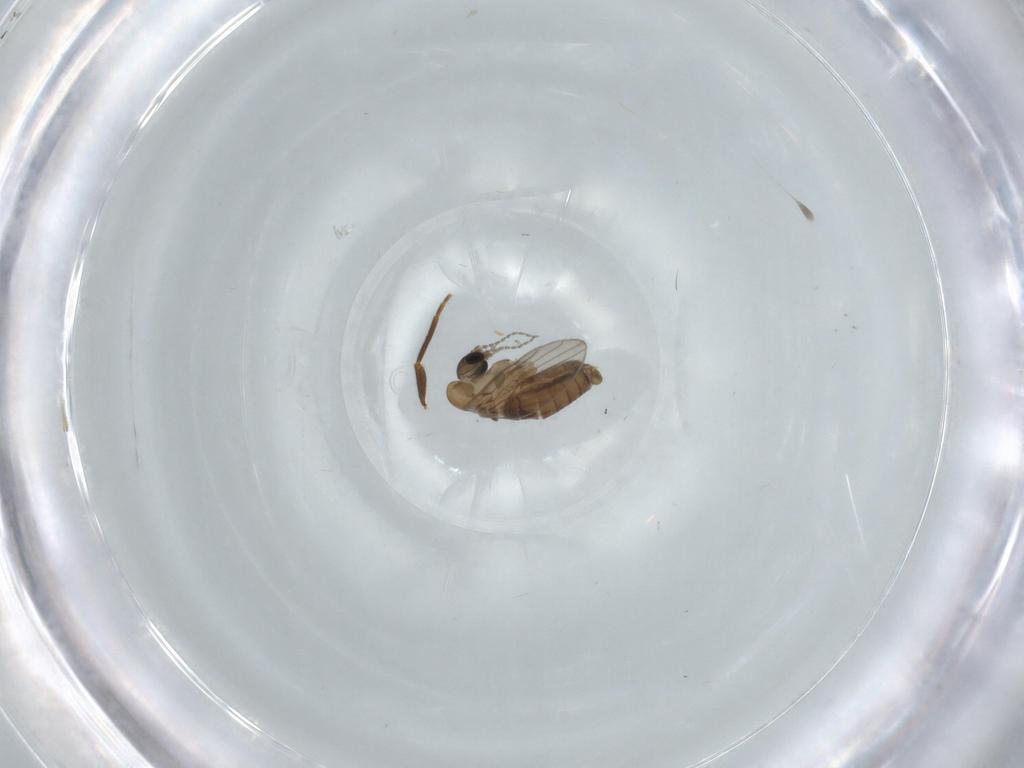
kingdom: Animalia
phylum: Arthropoda
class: Insecta
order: Diptera
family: Psychodidae
